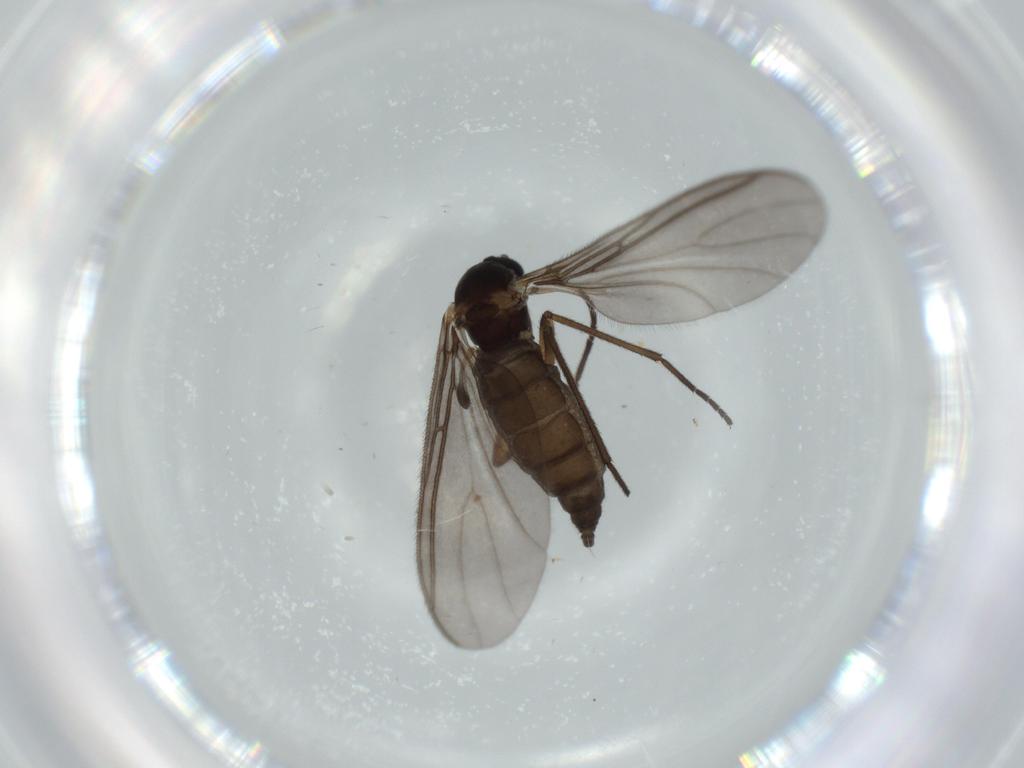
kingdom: Animalia
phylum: Arthropoda
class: Insecta
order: Diptera
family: Sciaridae
